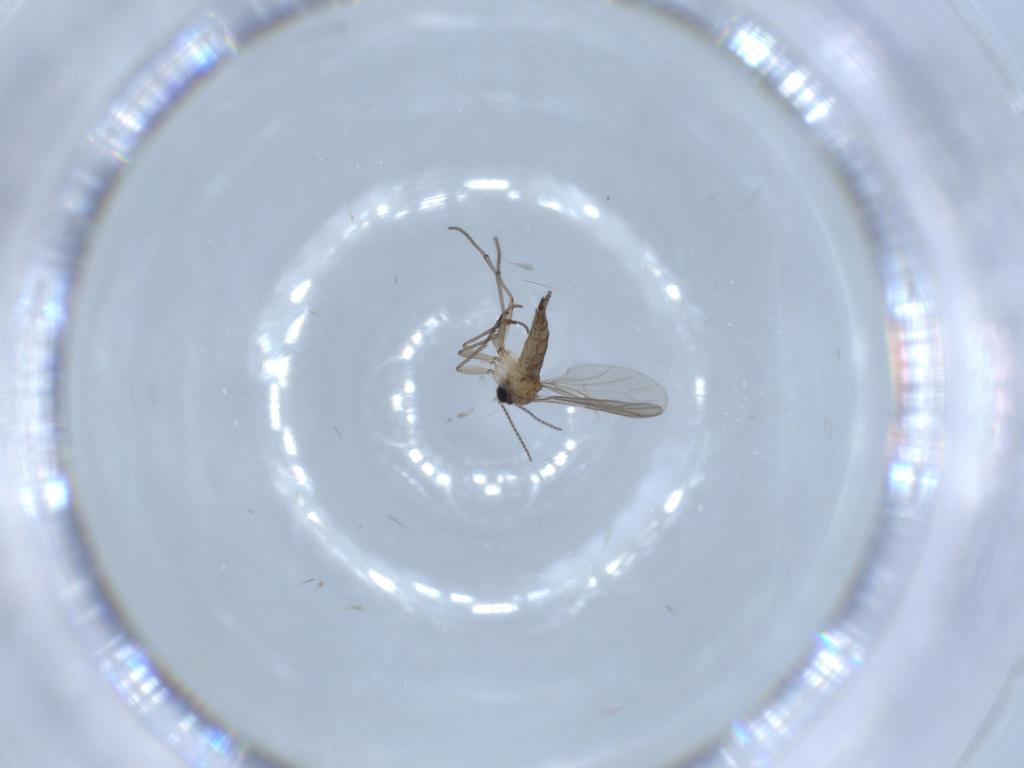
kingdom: Animalia
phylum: Arthropoda
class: Insecta
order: Diptera
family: Sciaridae
